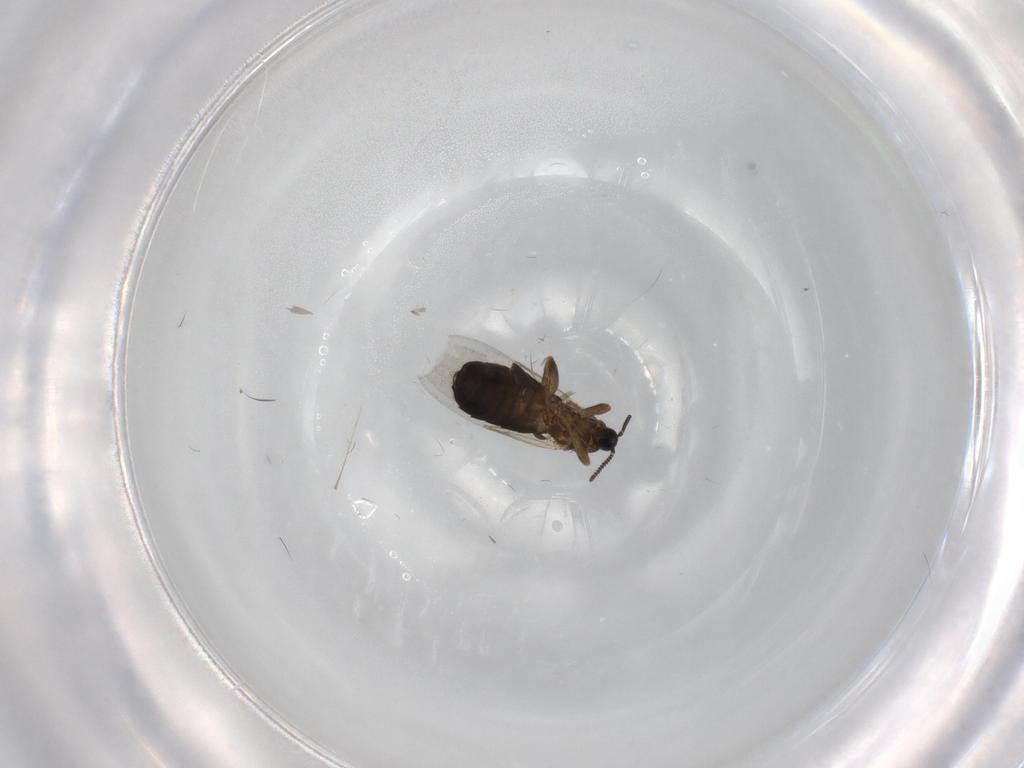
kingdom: Animalia
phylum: Arthropoda
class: Insecta
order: Diptera
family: Scatopsidae
